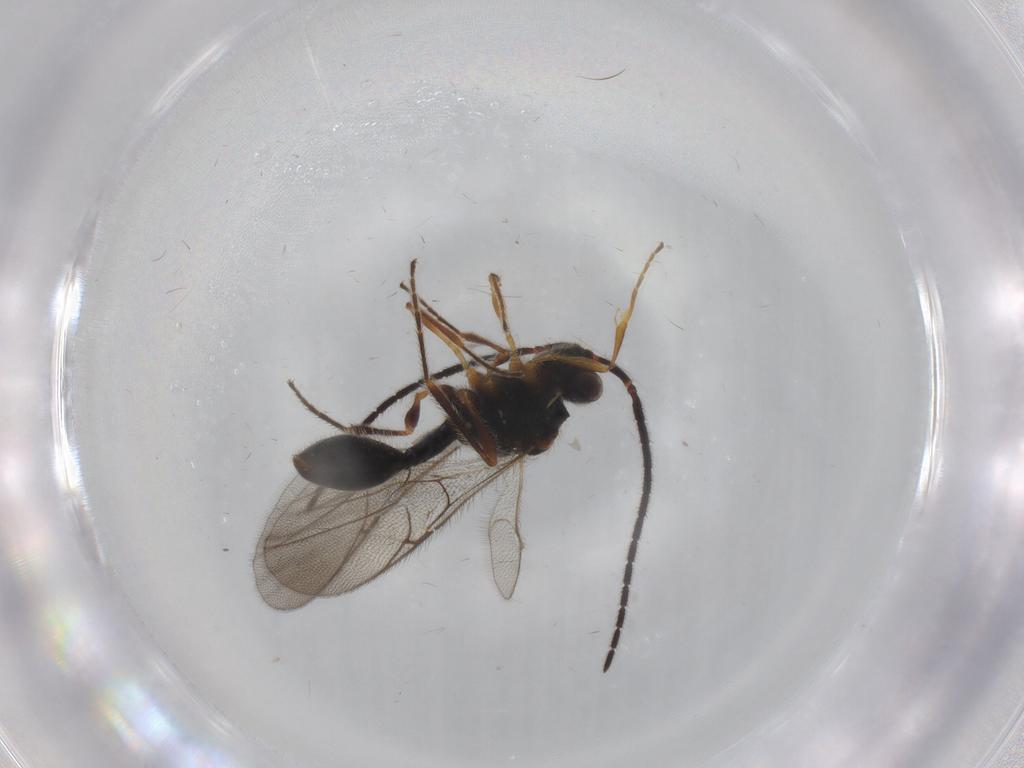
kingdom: Animalia
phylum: Arthropoda
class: Insecta
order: Hymenoptera
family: Diapriidae
